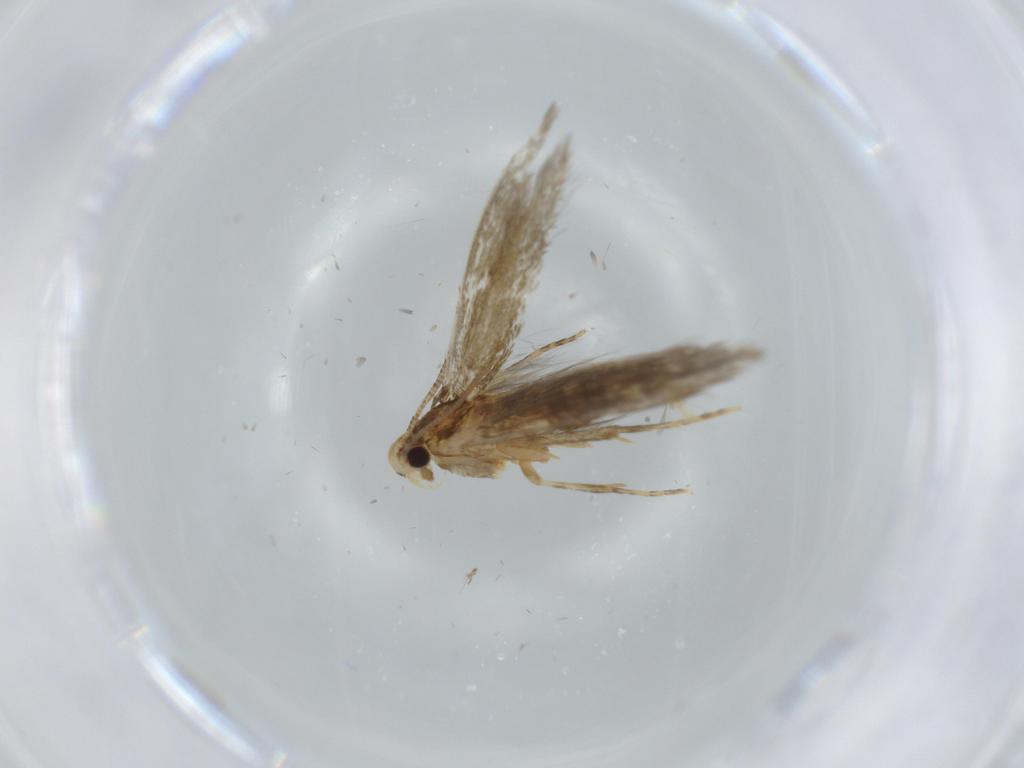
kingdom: Animalia
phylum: Arthropoda
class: Insecta
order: Lepidoptera
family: Tineidae
